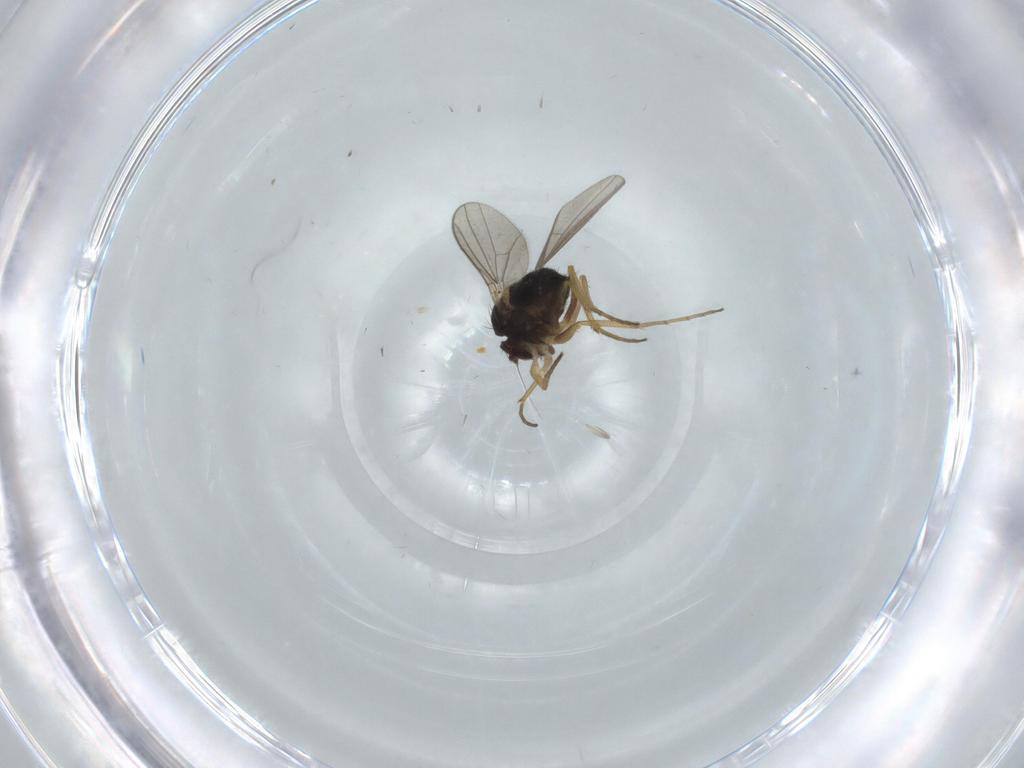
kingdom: Animalia
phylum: Arthropoda
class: Insecta
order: Diptera
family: Dolichopodidae
